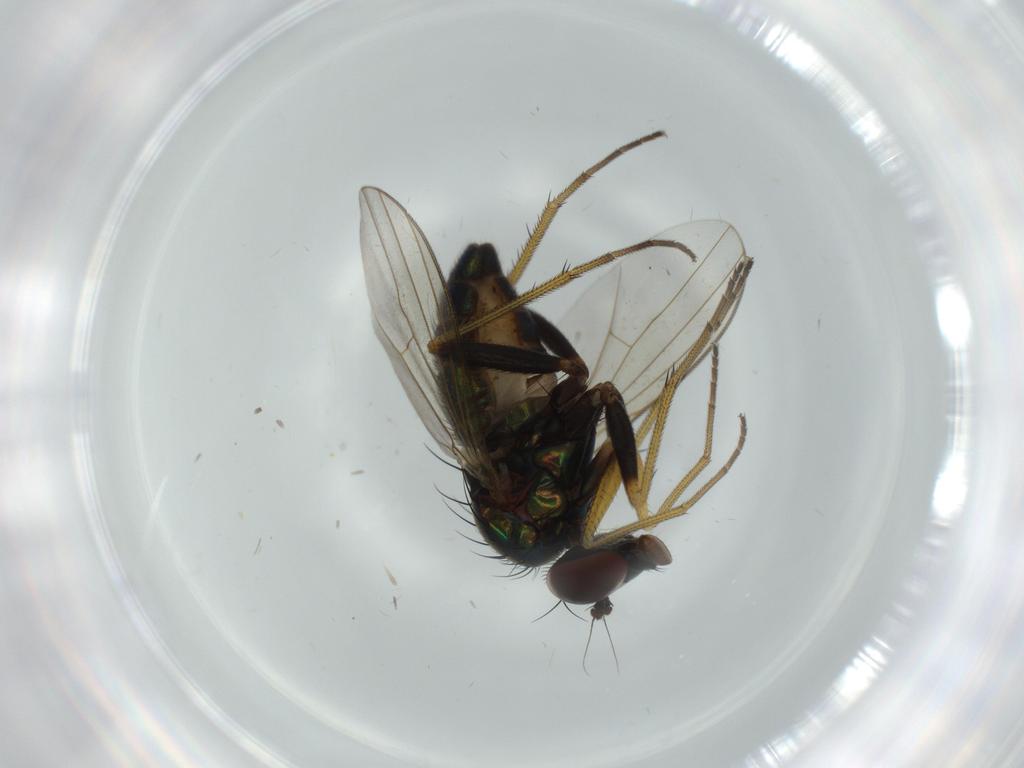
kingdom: Animalia
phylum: Arthropoda
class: Insecta
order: Diptera
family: Dolichopodidae
